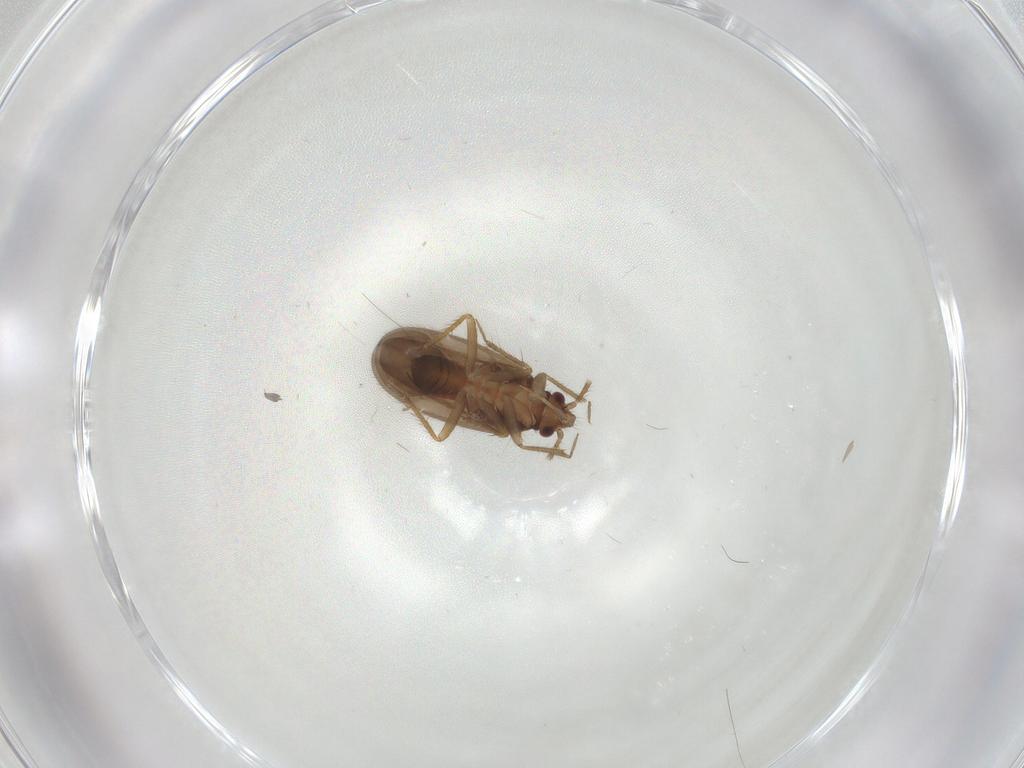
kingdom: Animalia
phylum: Arthropoda
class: Insecta
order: Hemiptera
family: Ceratocombidae
